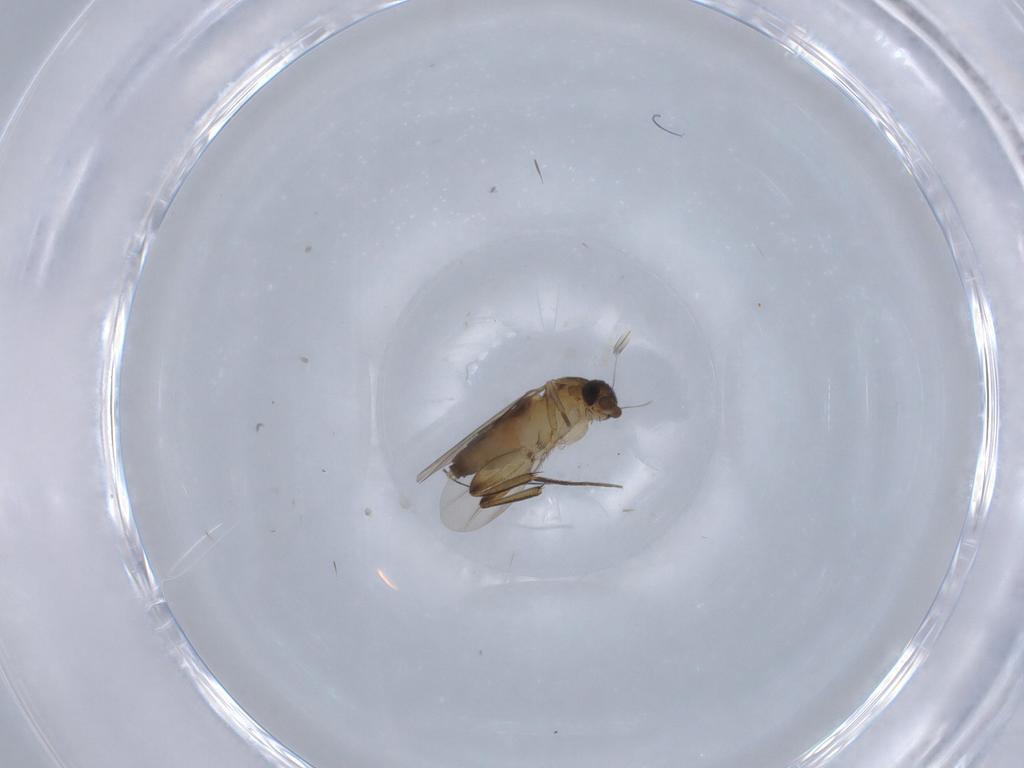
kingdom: Animalia
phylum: Arthropoda
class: Insecta
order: Diptera
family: Phoridae
